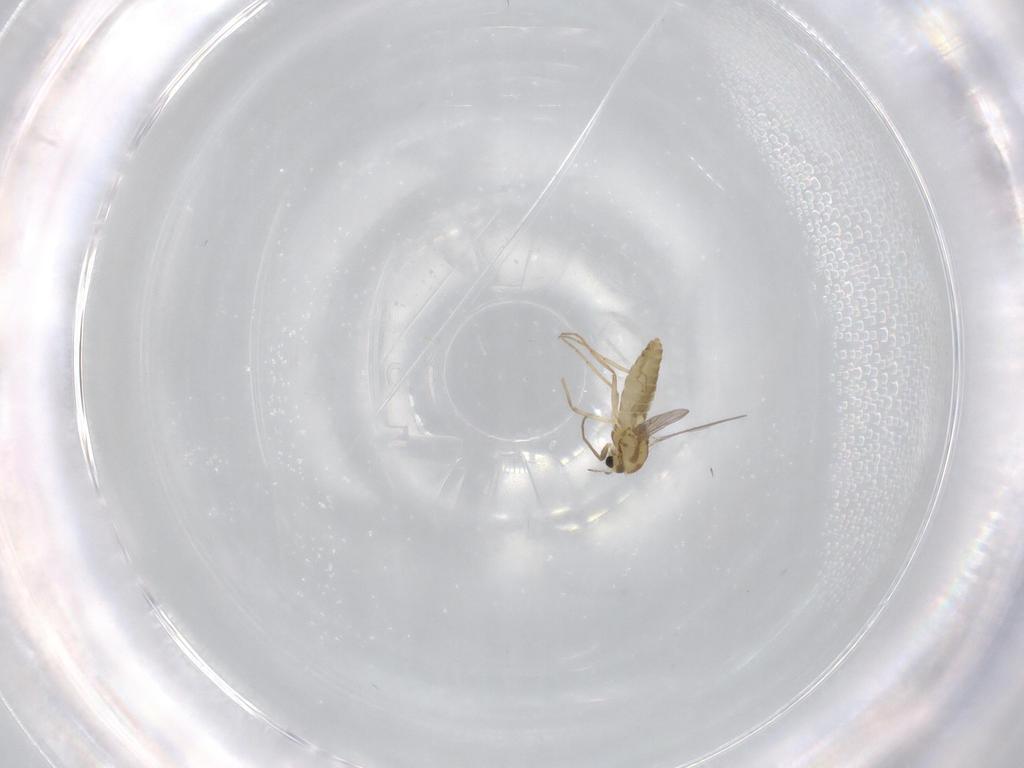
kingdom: Animalia
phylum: Arthropoda
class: Insecta
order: Diptera
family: Chironomidae
